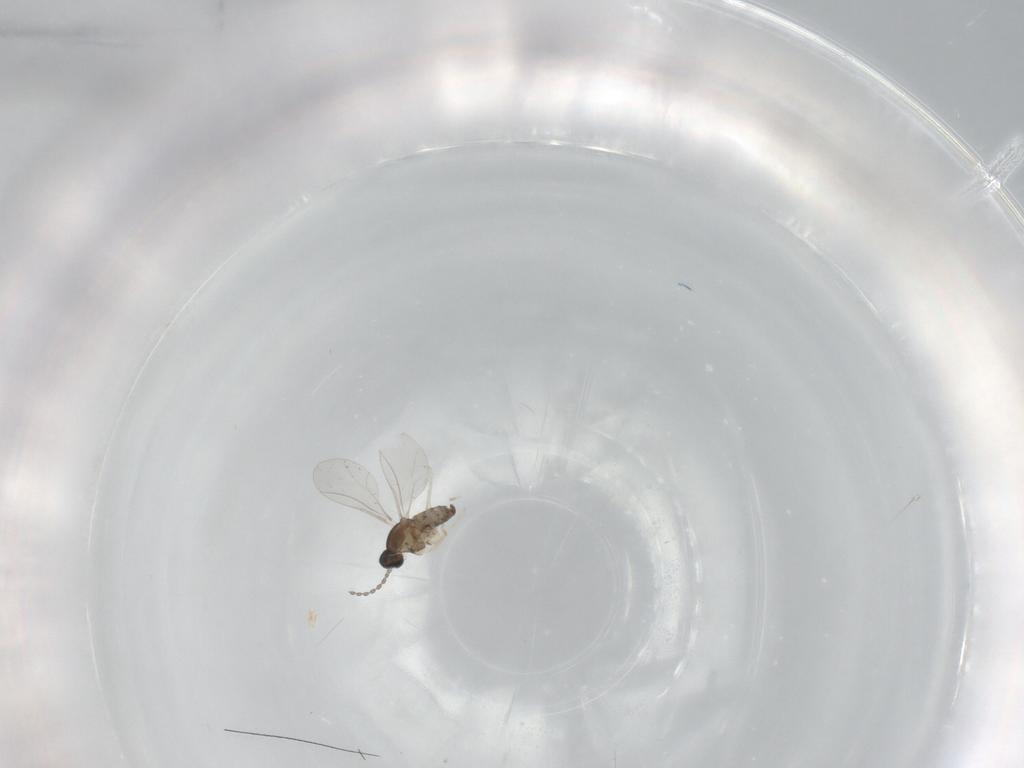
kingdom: Animalia
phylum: Arthropoda
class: Insecta
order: Diptera
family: Cecidomyiidae
